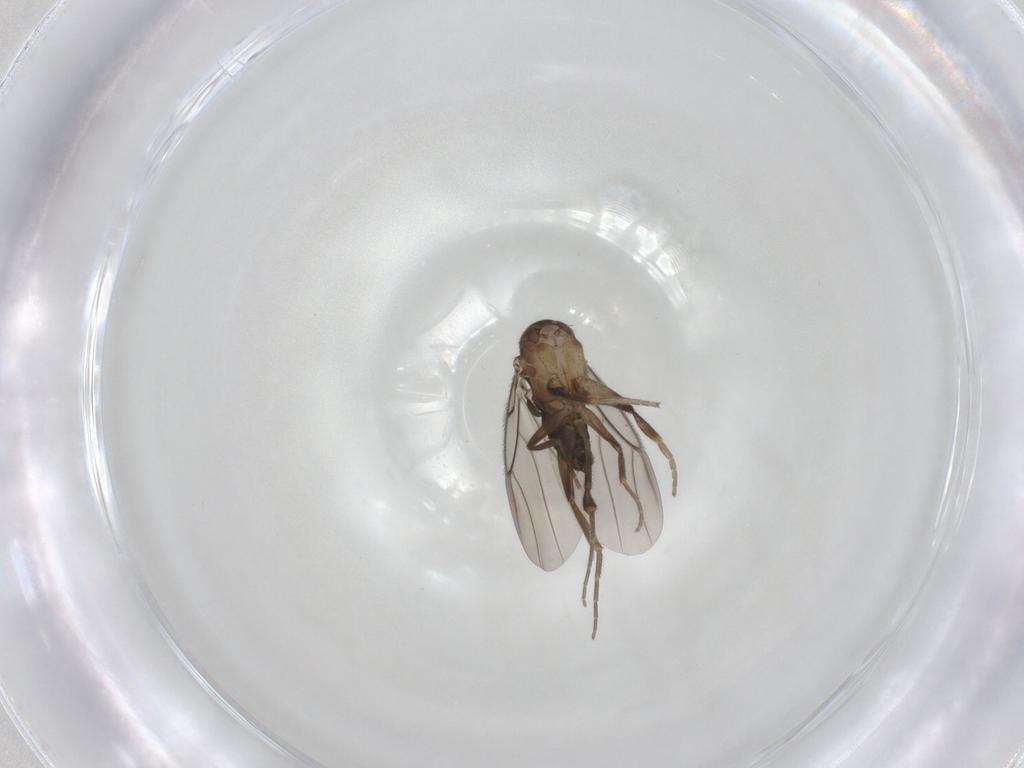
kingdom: Animalia
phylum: Arthropoda
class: Insecta
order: Diptera
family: Phoridae
